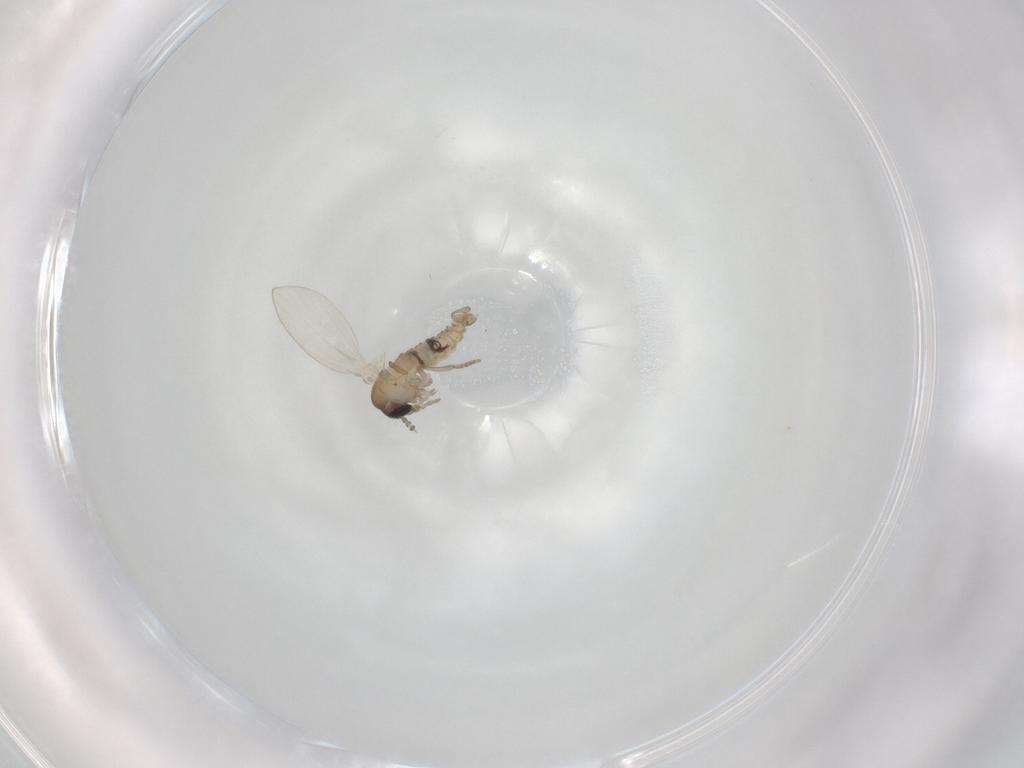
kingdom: Animalia
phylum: Arthropoda
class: Insecta
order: Diptera
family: Psychodidae
